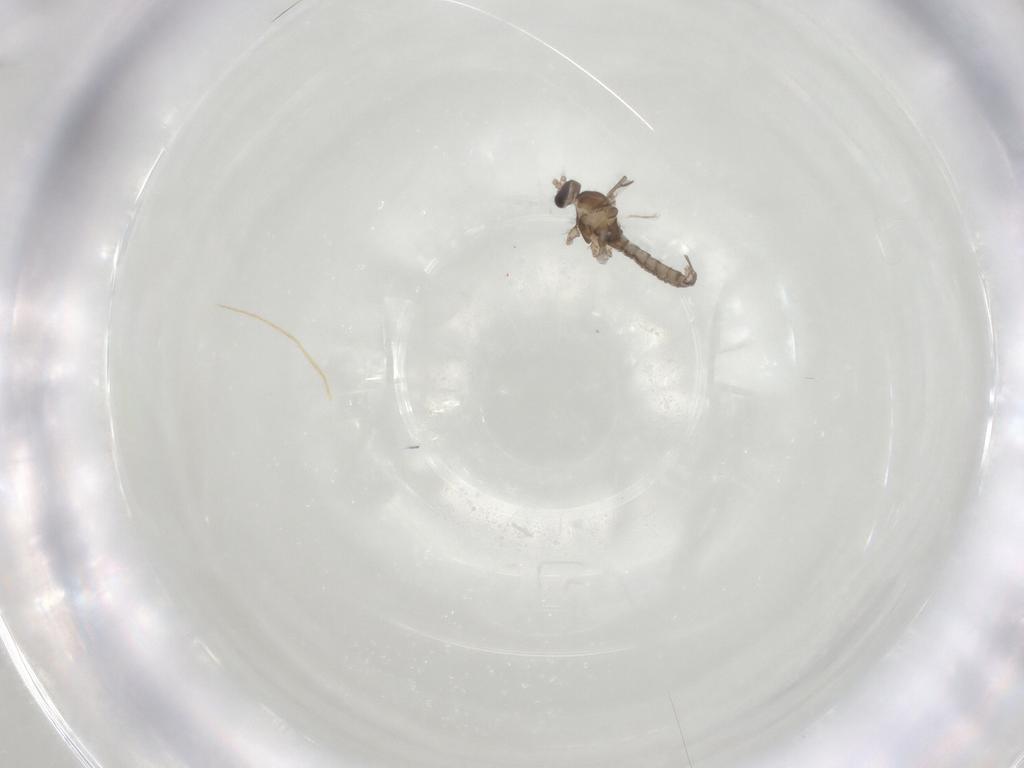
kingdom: Animalia
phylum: Arthropoda
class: Insecta
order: Diptera
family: Cecidomyiidae
